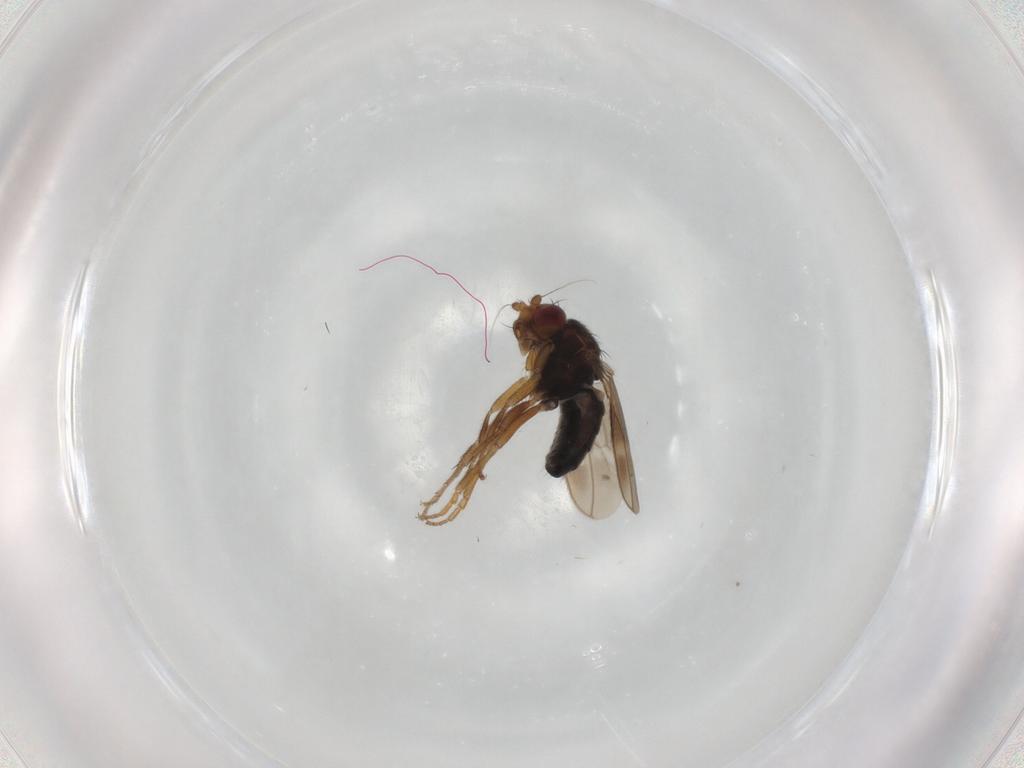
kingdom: Animalia
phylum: Arthropoda
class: Insecta
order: Diptera
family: Sphaeroceridae
